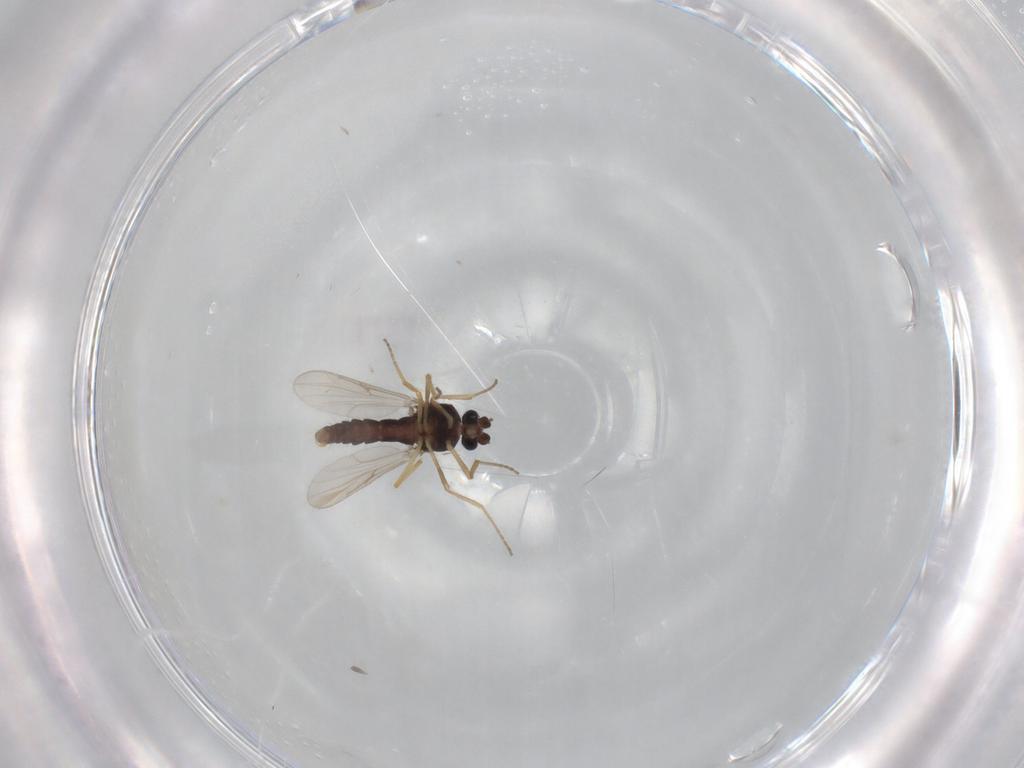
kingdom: Animalia
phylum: Arthropoda
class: Insecta
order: Diptera
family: Ceratopogonidae
